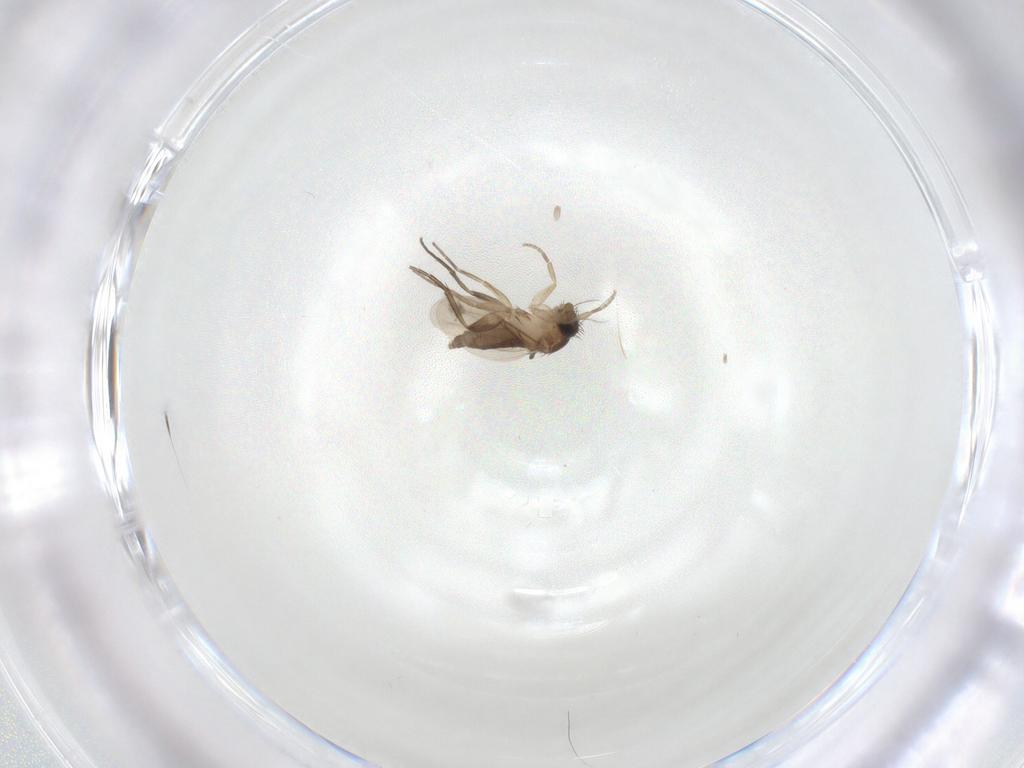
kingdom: Animalia
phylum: Arthropoda
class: Insecta
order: Diptera
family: Phoridae
